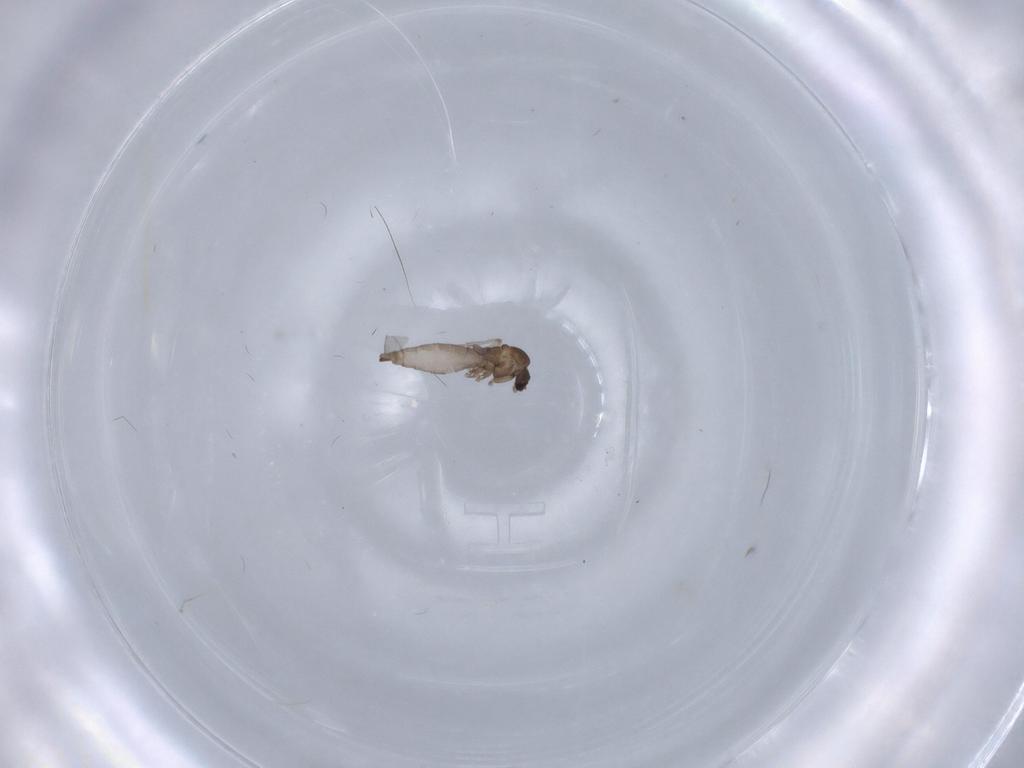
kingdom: Animalia
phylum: Arthropoda
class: Insecta
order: Diptera
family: Sciaridae
